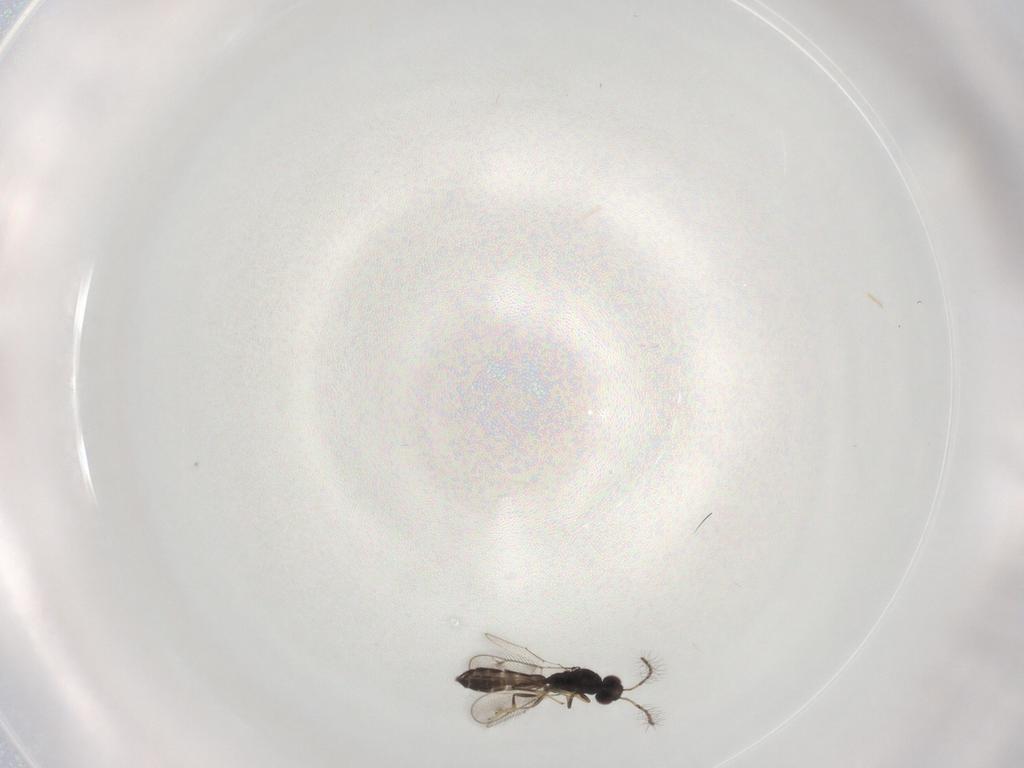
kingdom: Animalia
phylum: Arthropoda
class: Insecta
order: Hymenoptera
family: Pteromalidae
